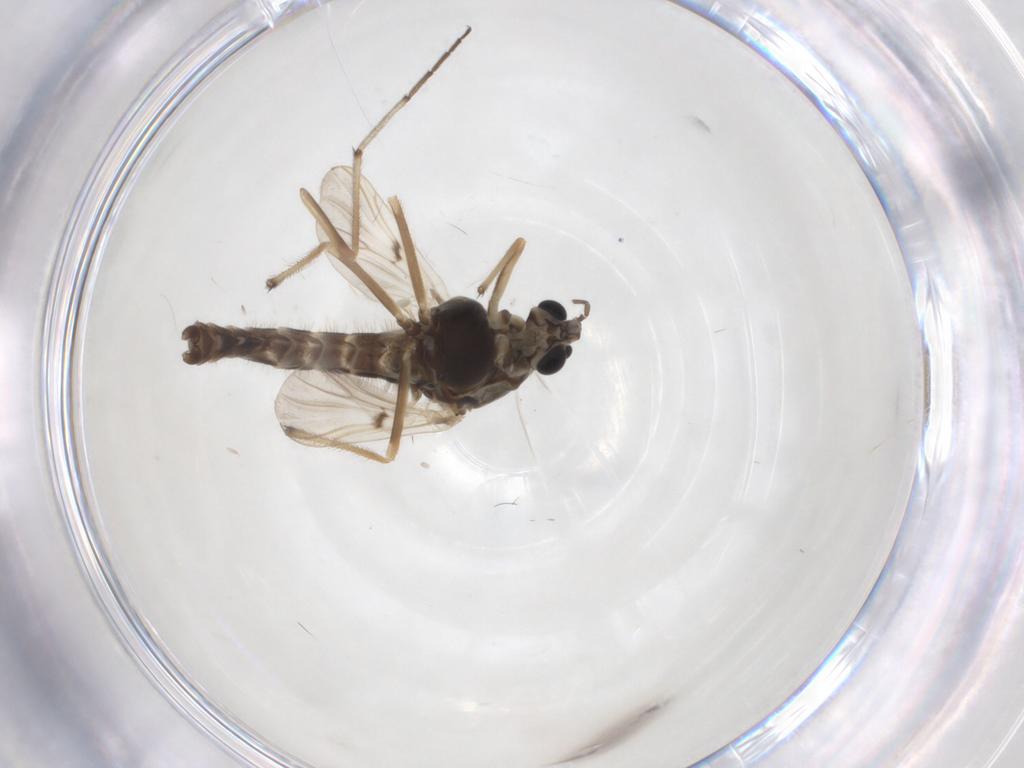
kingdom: Animalia
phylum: Arthropoda
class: Insecta
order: Diptera
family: Chironomidae
